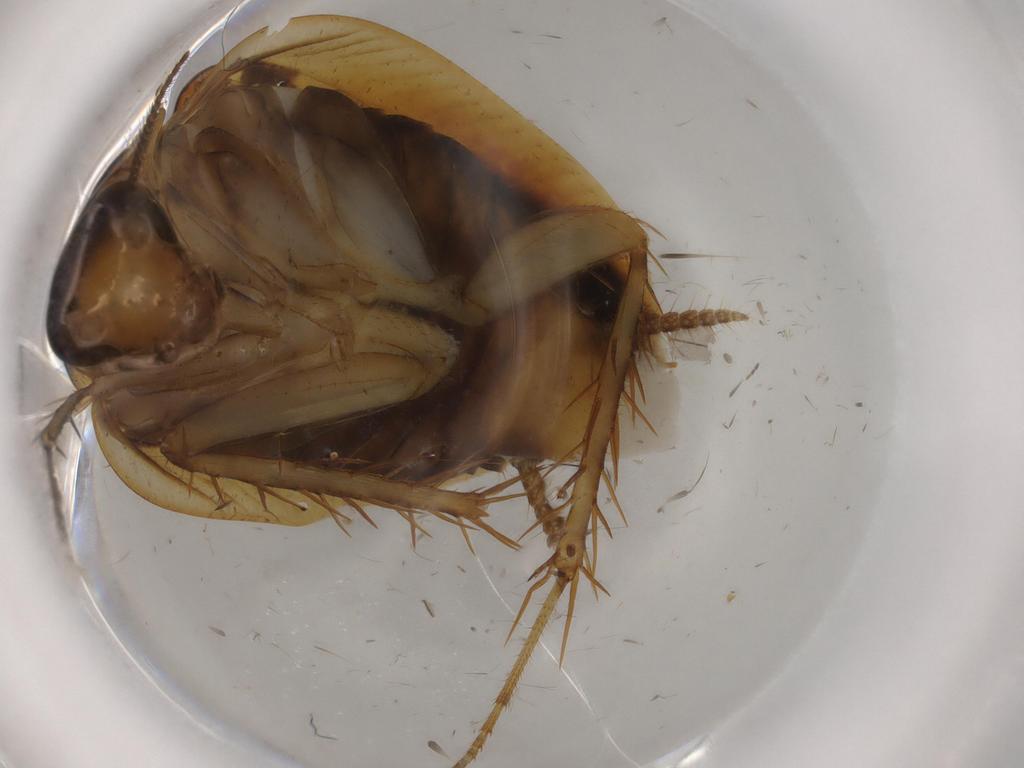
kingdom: Animalia
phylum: Arthropoda
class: Insecta
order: Blattodea
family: Ectobiidae
